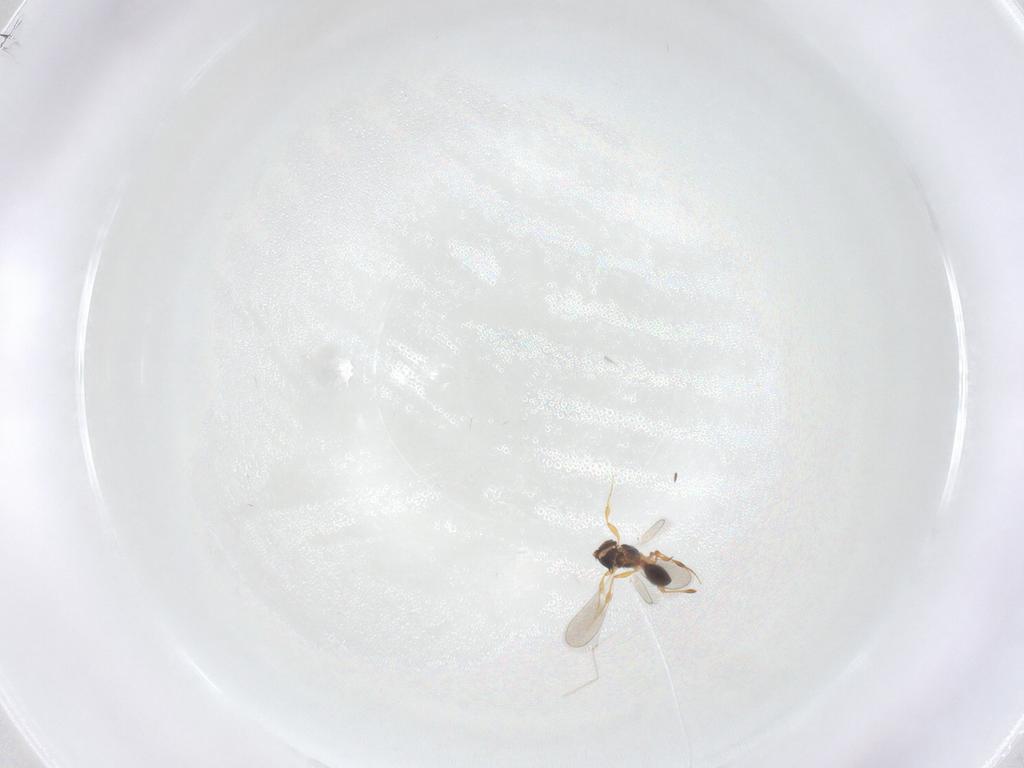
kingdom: Animalia
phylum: Arthropoda
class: Insecta
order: Hymenoptera
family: Platygastridae
